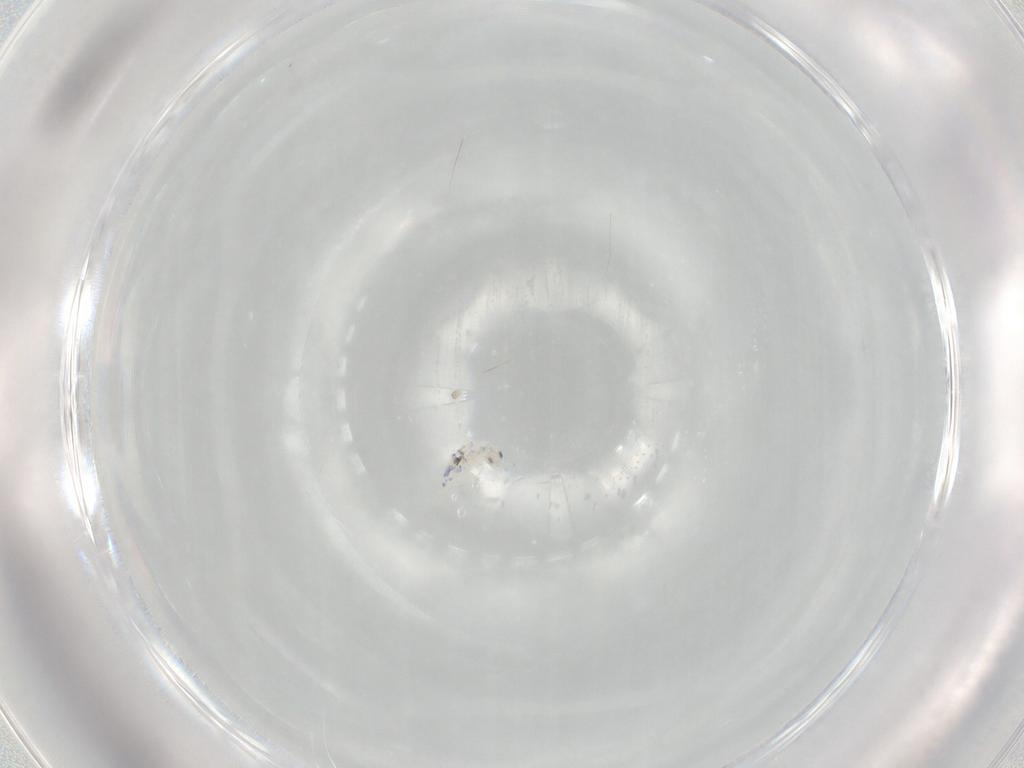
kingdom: Animalia
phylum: Arthropoda
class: Collembola
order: Entomobryomorpha
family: Entomobryidae
